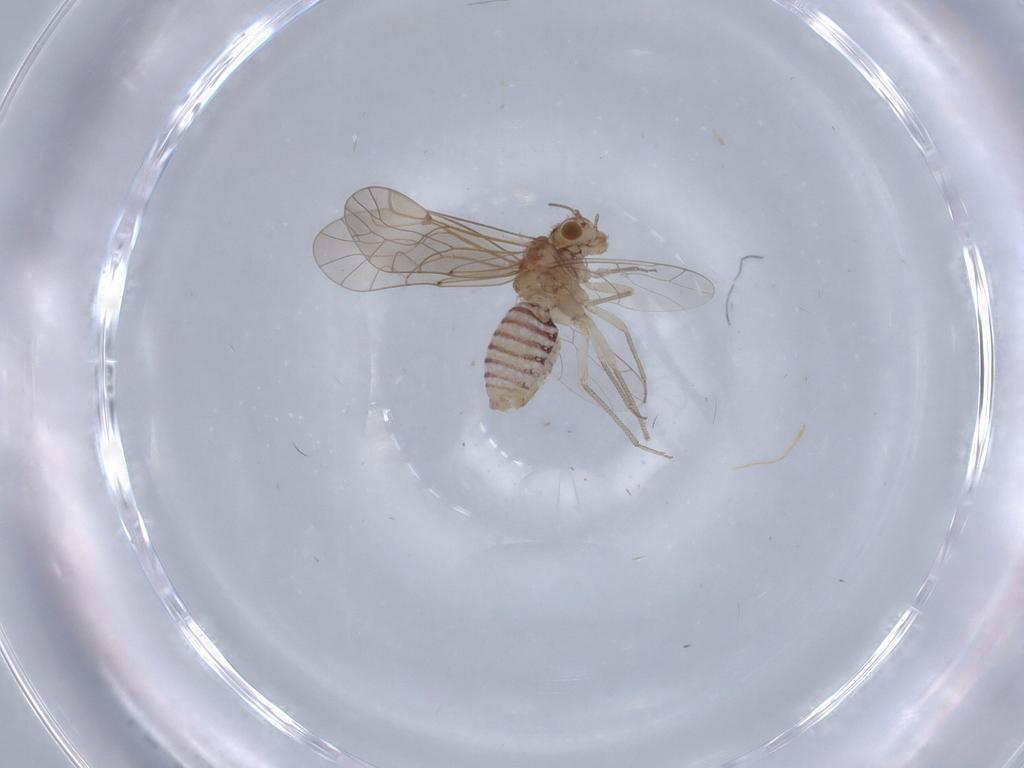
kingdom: Animalia
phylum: Arthropoda
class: Insecta
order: Psocodea
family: Lachesillidae
